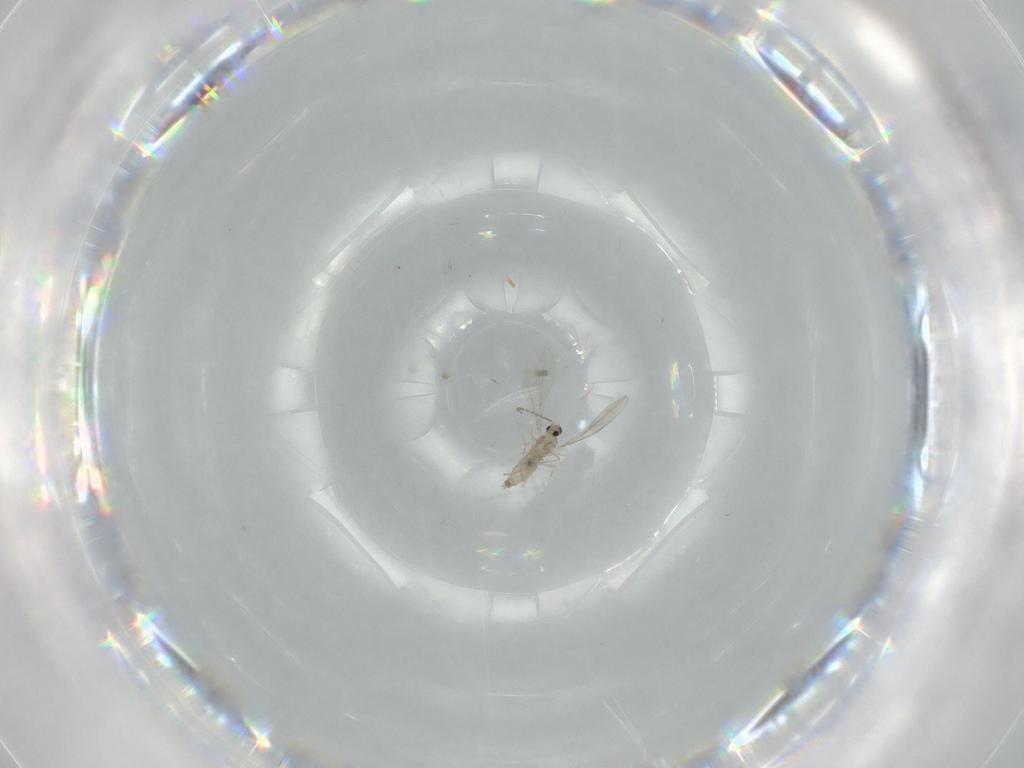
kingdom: Animalia
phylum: Arthropoda
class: Insecta
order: Diptera
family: Cecidomyiidae
